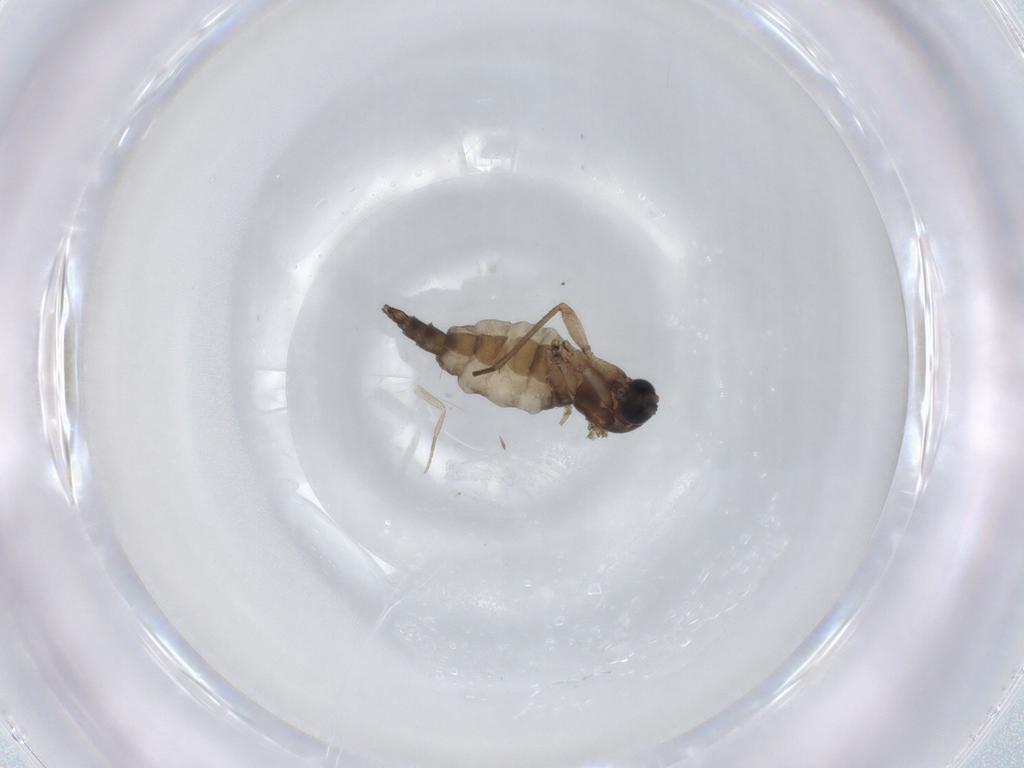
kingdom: Animalia
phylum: Arthropoda
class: Insecta
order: Diptera
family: Sciaridae
